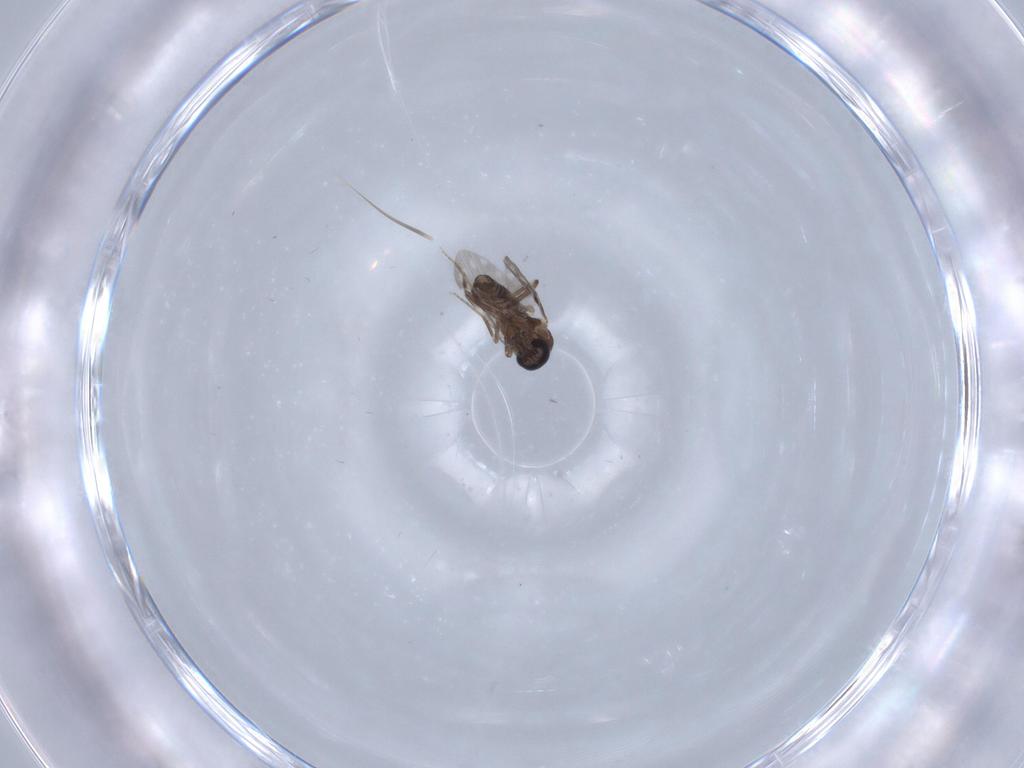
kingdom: Animalia
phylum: Arthropoda
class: Insecta
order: Diptera
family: Ceratopogonidae
